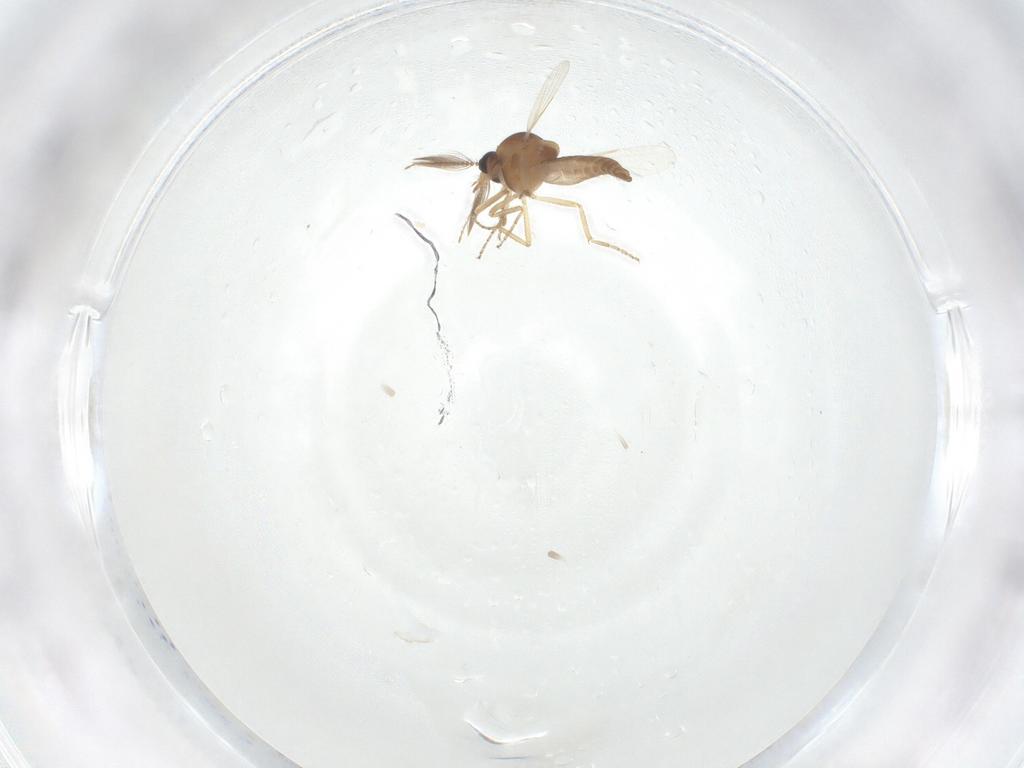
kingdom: Animalia
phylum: Arthropoda
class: Insecta
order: Diptera
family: Ceratopogonidae
